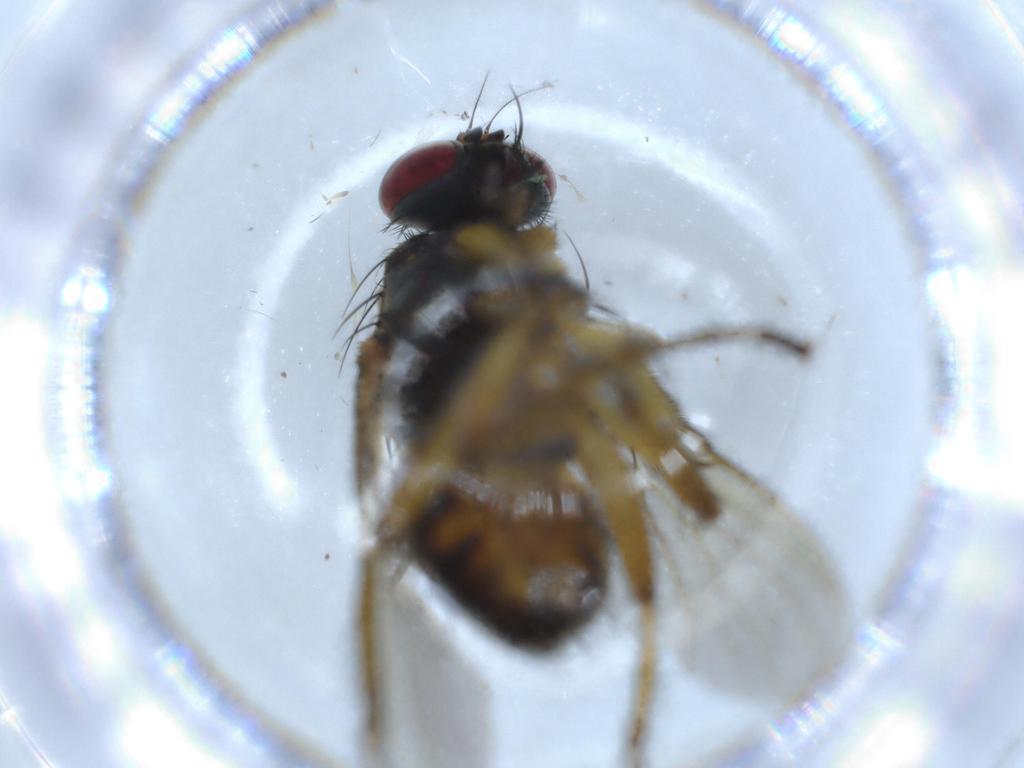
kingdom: Animalia
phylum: Arthropoda
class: Insecta
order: Diptera
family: Muscidae
